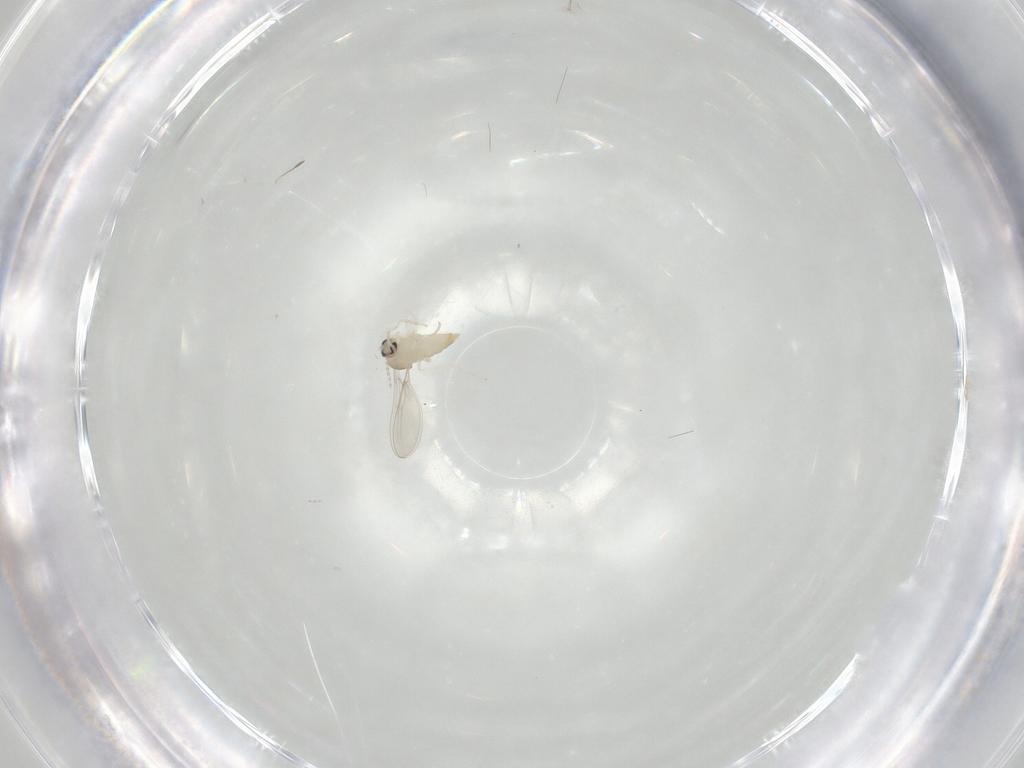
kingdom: Animalia
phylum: Arthropoda
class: Insecta
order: Diptera
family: Cecidomyiidae
